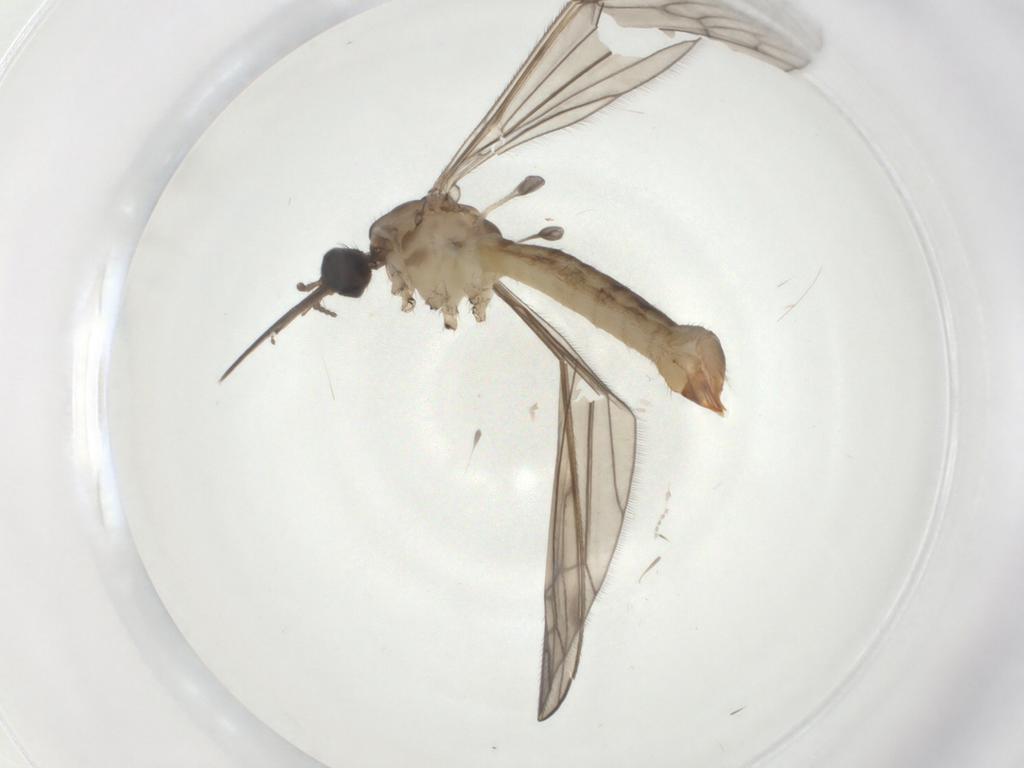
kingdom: Animalia
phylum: Arthropoda
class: Insecta
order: Diptera
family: Limoniidae
